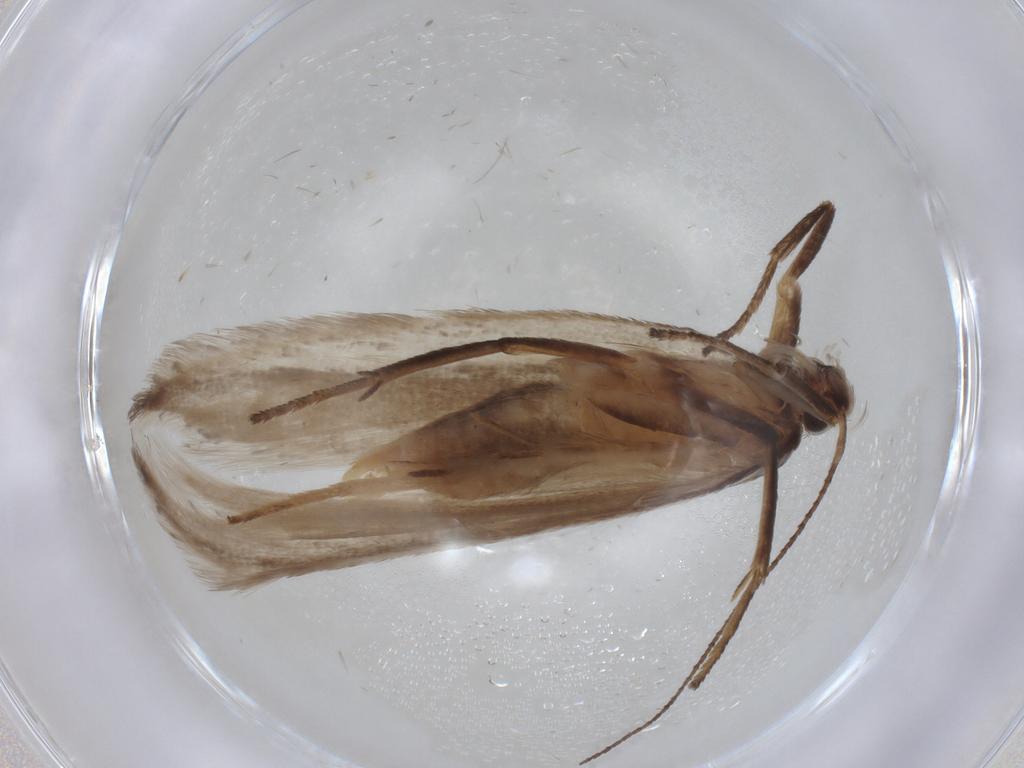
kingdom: Animalia
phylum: Arthropoda
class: Insecta
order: Lepidoptera
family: Gelechiidae
